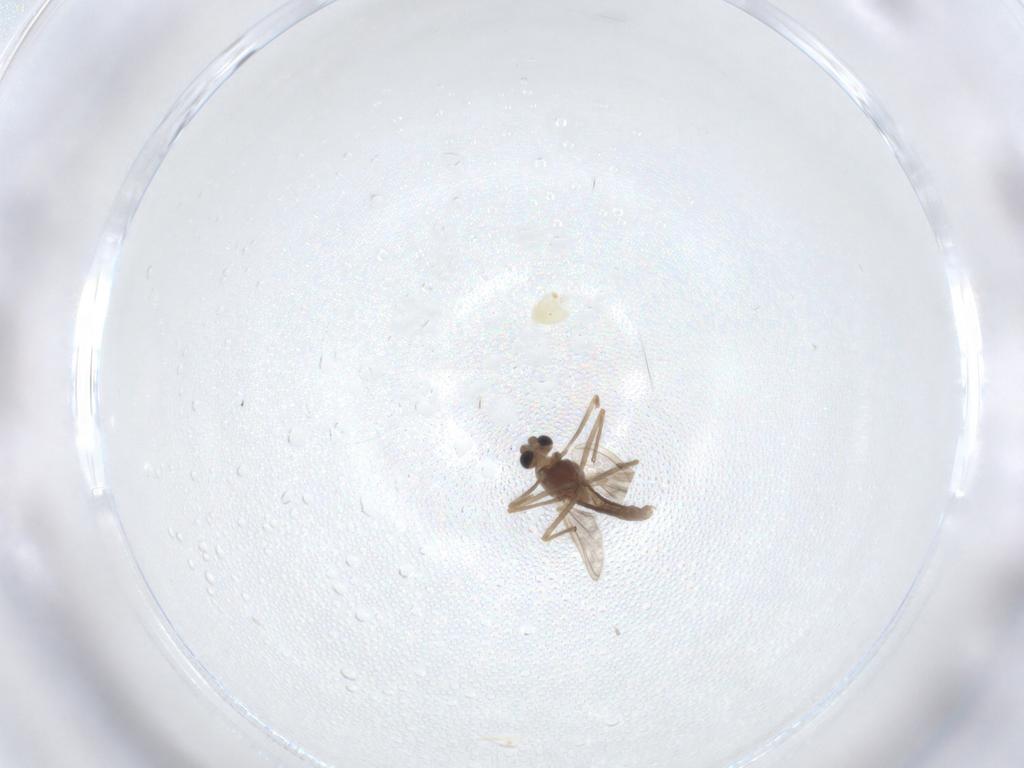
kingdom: Animalia
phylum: Arthropoda
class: Insecta
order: Diptera
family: Chironomidae
